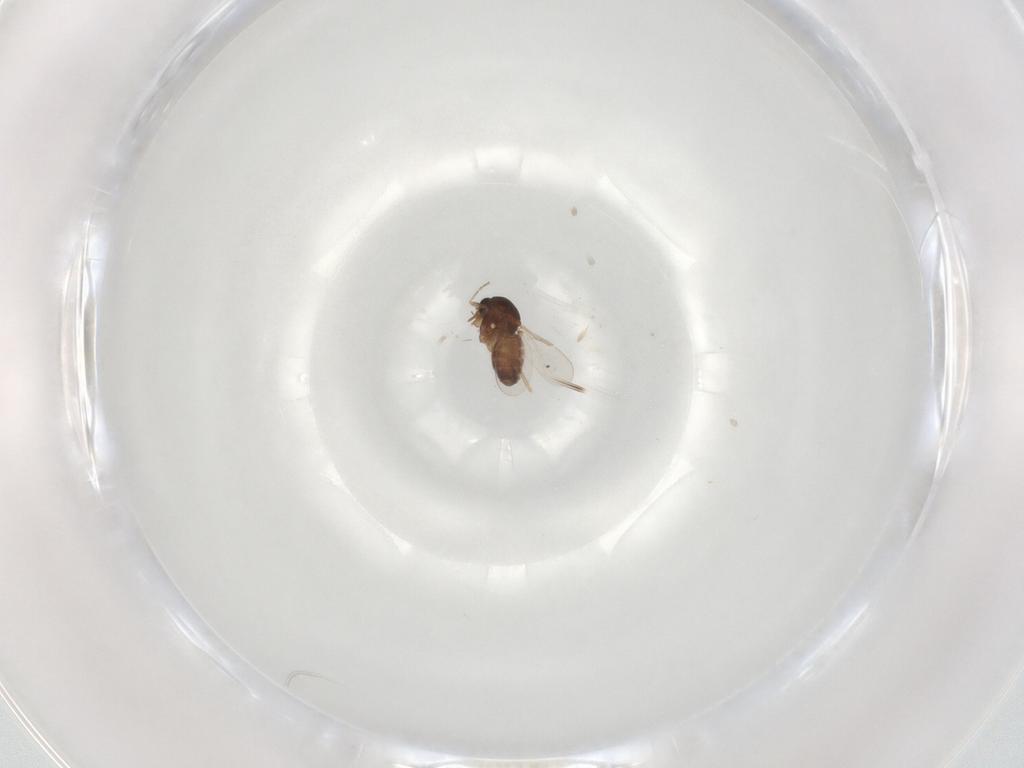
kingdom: Animalia
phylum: Arthropoda
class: Insecta
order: Diptera
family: Ceratopogonidae
